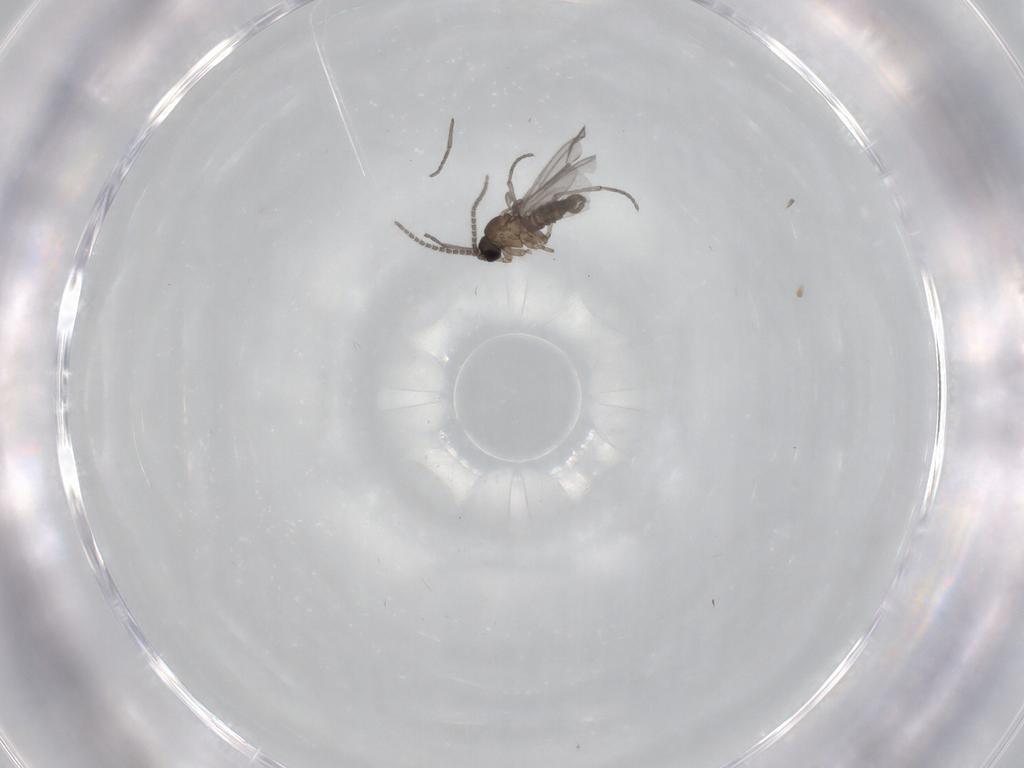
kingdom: Animalia
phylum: Arthropoda
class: Insecta
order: Diptera
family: Sciaridae
